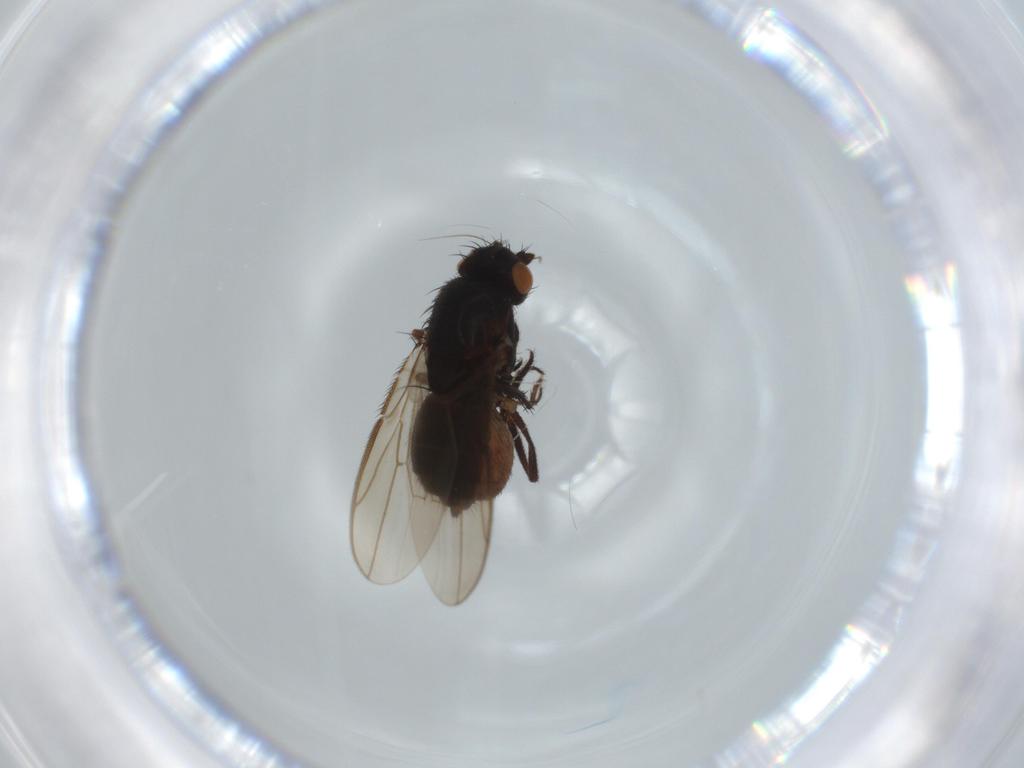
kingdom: Animalia
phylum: Arthropoda
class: Insecta
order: Diptera
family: Sphaeroceridae
